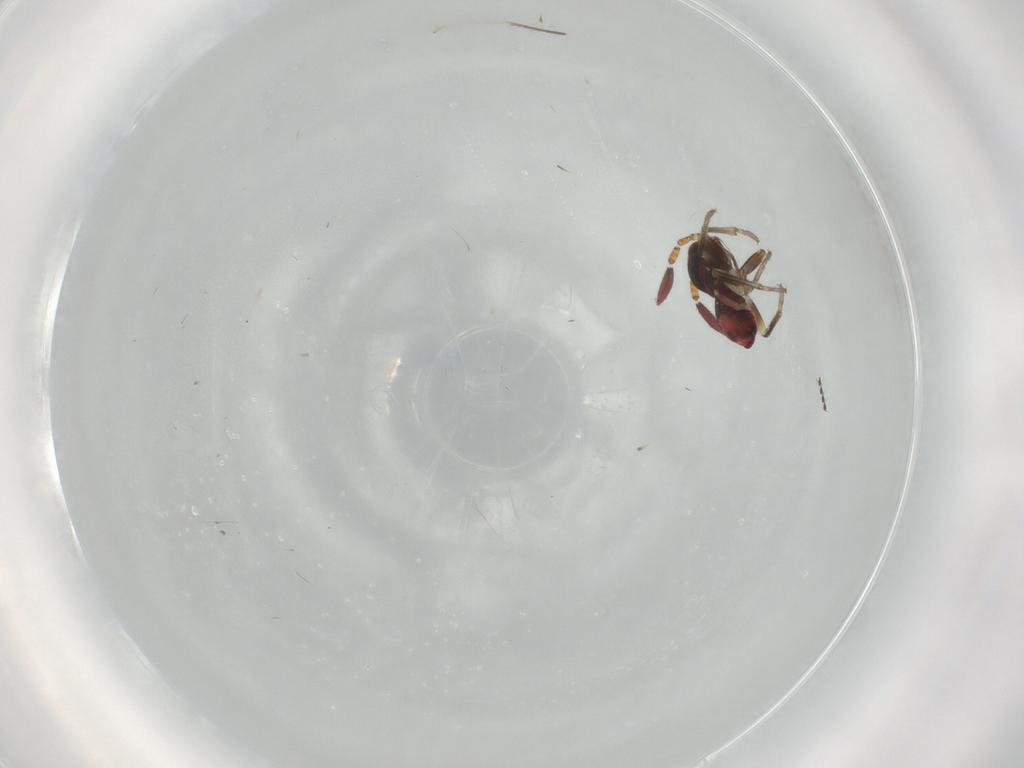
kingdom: Animalia
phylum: Arthropoda
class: Insecta
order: Hemiptera
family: Rhyparochromidae
